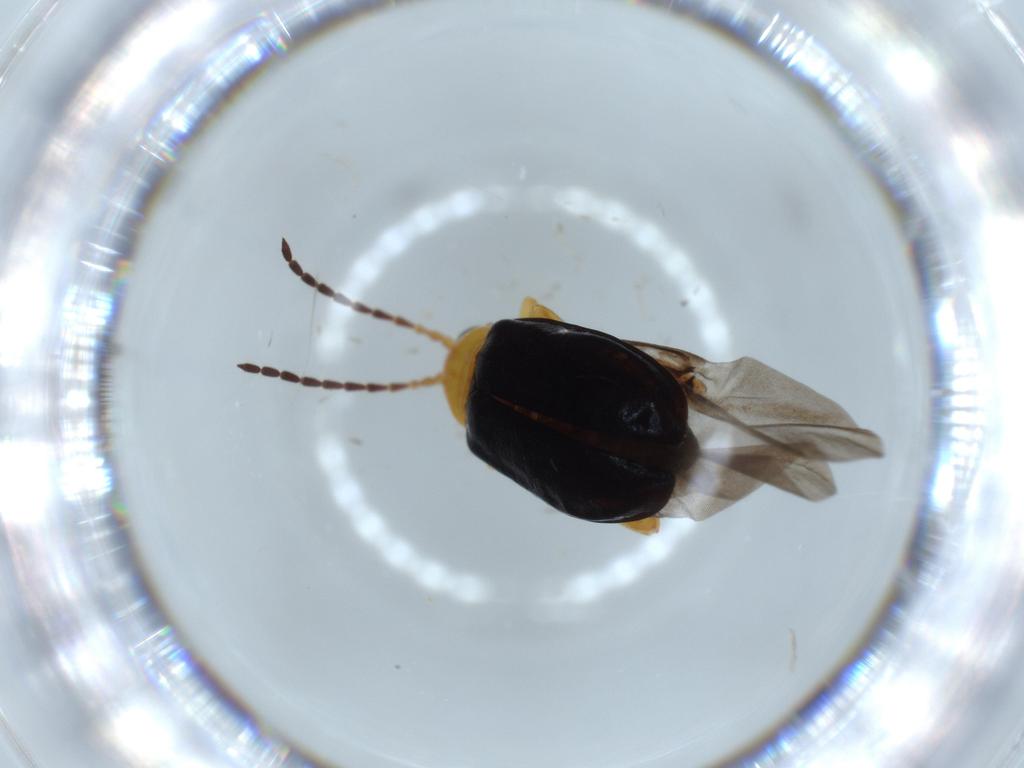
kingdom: Animalia
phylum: Arthropoda
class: Insecta
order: Coleoptera
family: Chrysomelidae
